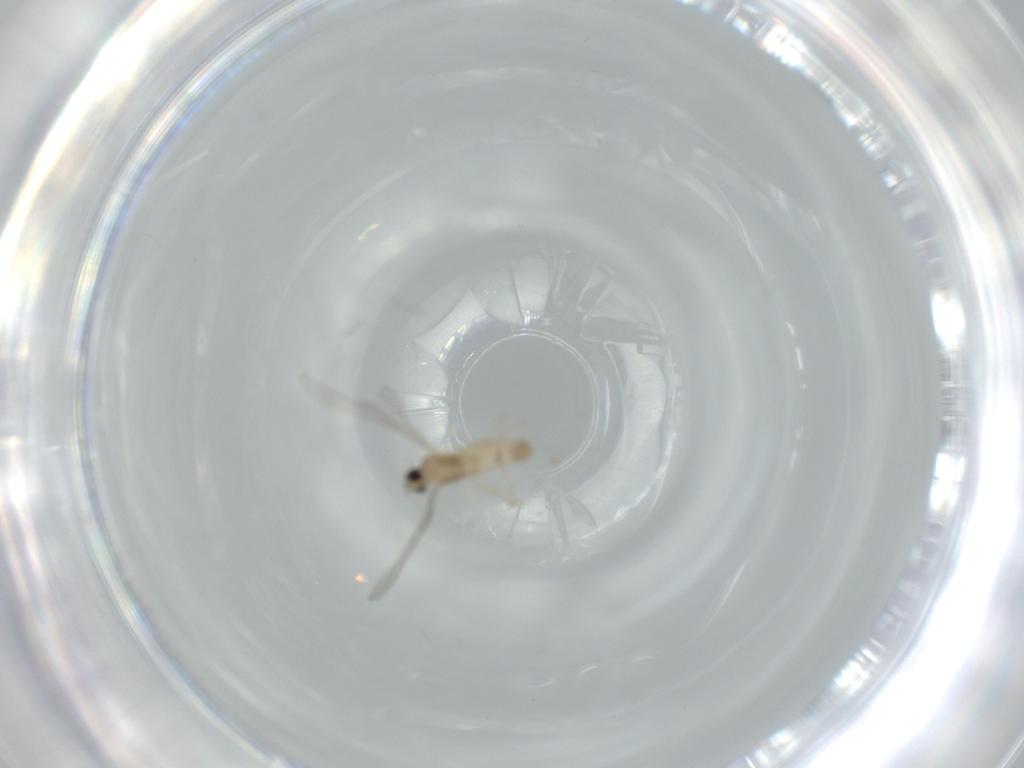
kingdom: Animalia
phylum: Arthropoda
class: Insecta
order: Diptera
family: Cecidomyiidae
